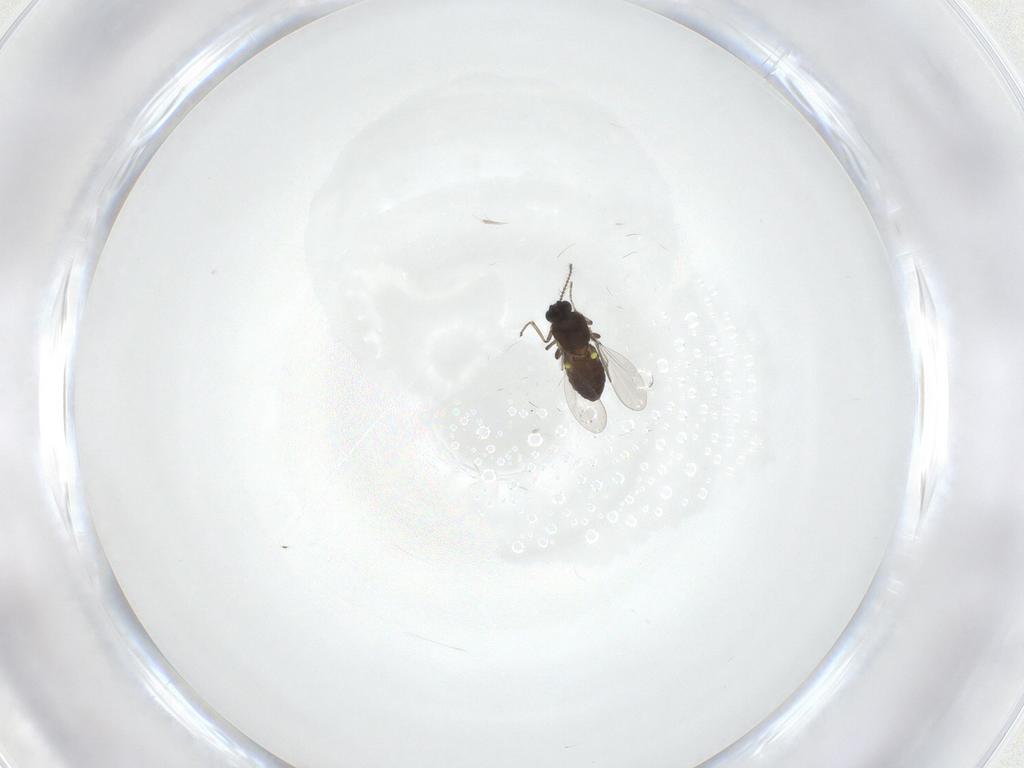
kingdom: Animalia
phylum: Arthropoda
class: Insecta
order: Diptera
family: Ceratopogonidae
